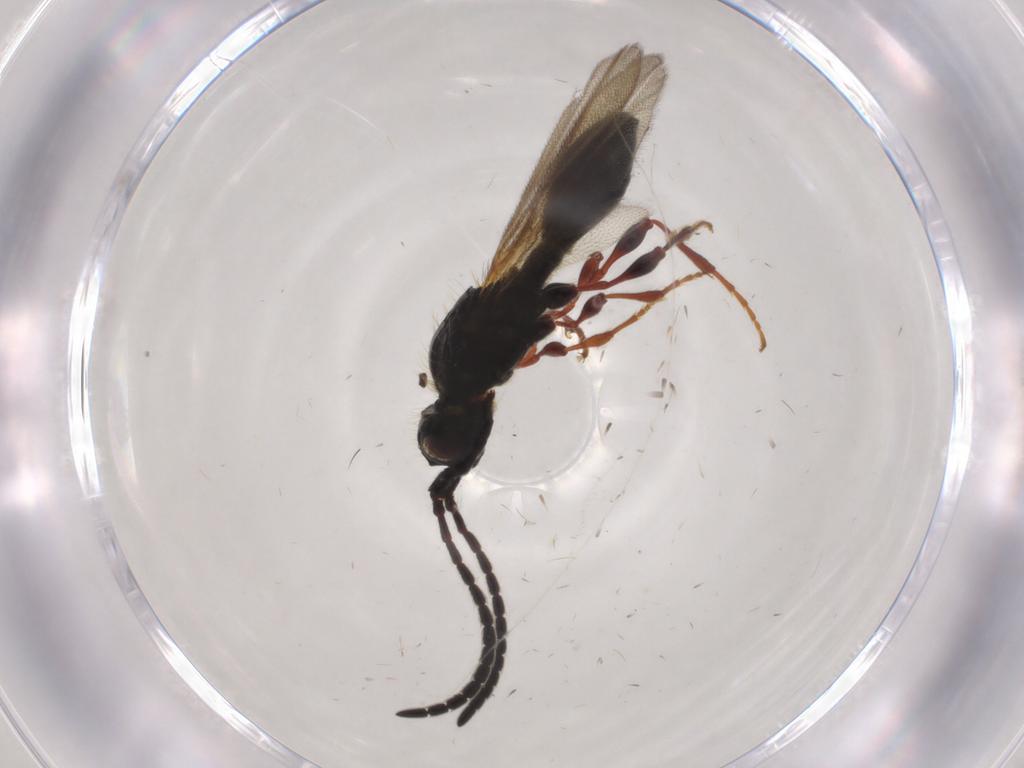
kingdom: Animalia
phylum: Arthropoda
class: Insecta
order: Hymenoptera
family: Diapriidae
